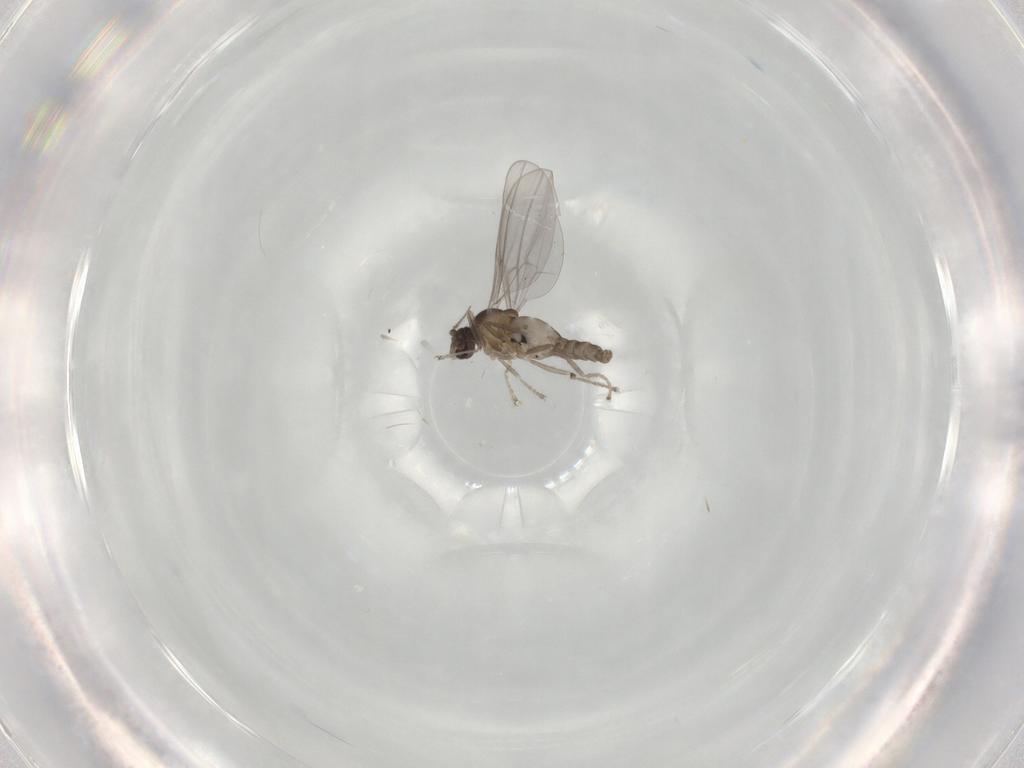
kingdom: Animalia
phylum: Arthropoda
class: Insecta
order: Diptera
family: Cecidomyiidae
